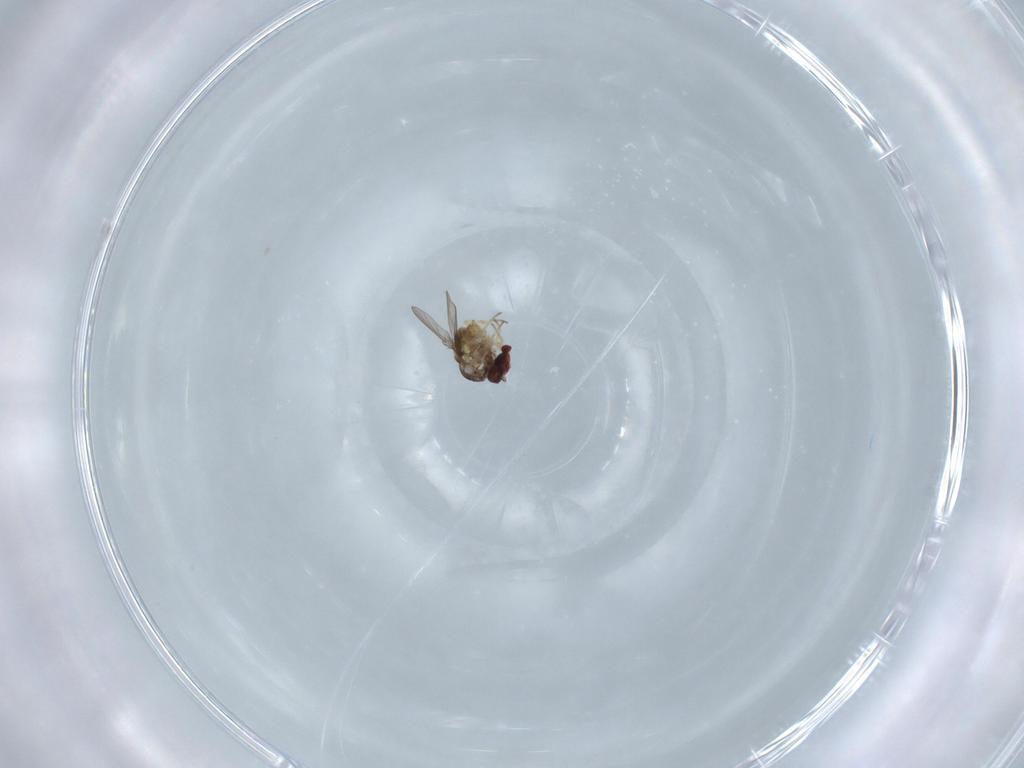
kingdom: Animalia
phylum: Arthropoda
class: Insecta
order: Diptera
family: Bombyliidae
